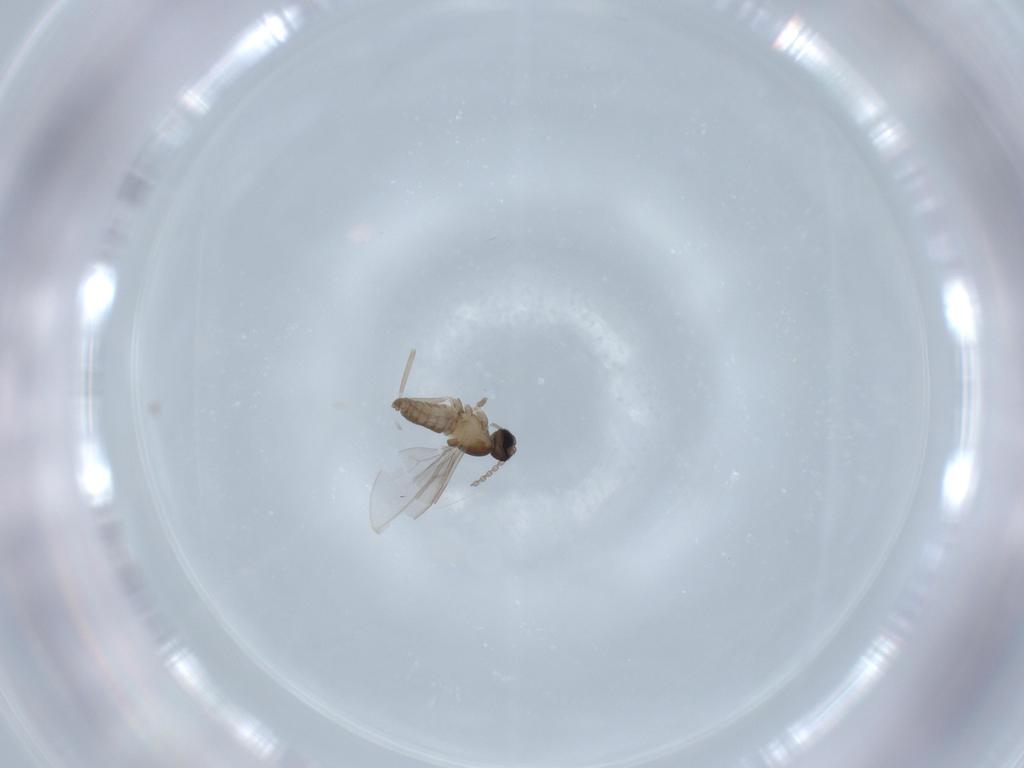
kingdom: Animalia
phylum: Arthropoda
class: Insecta
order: Diptera
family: Cecidomyiidae
